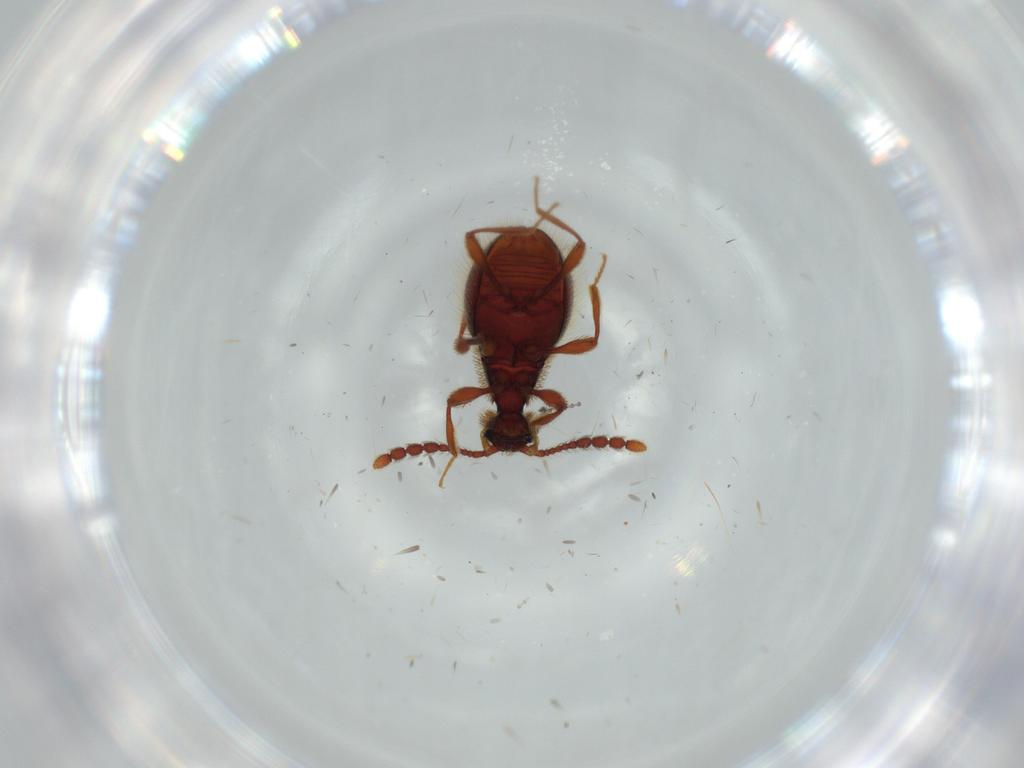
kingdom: Animalia
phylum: Arthropoda
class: Insecta
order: Coleoptera
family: Staphylinidae
